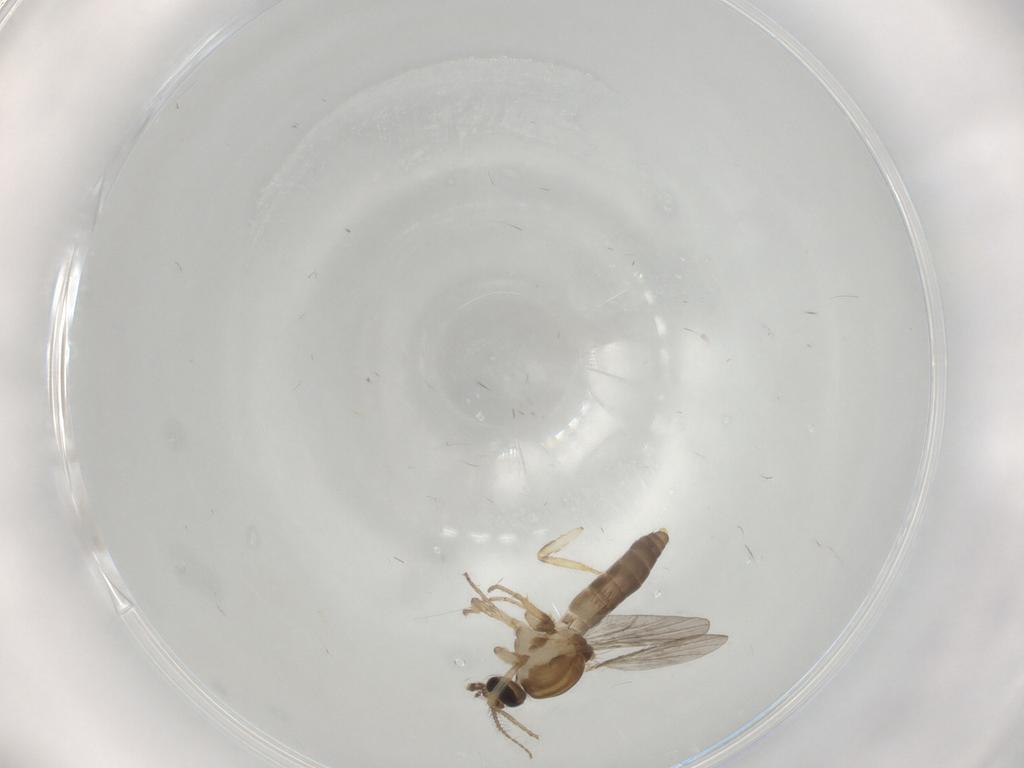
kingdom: Animalia
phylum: Arthropoda
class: Insecta
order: Diptera
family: Ceratopogonidae
